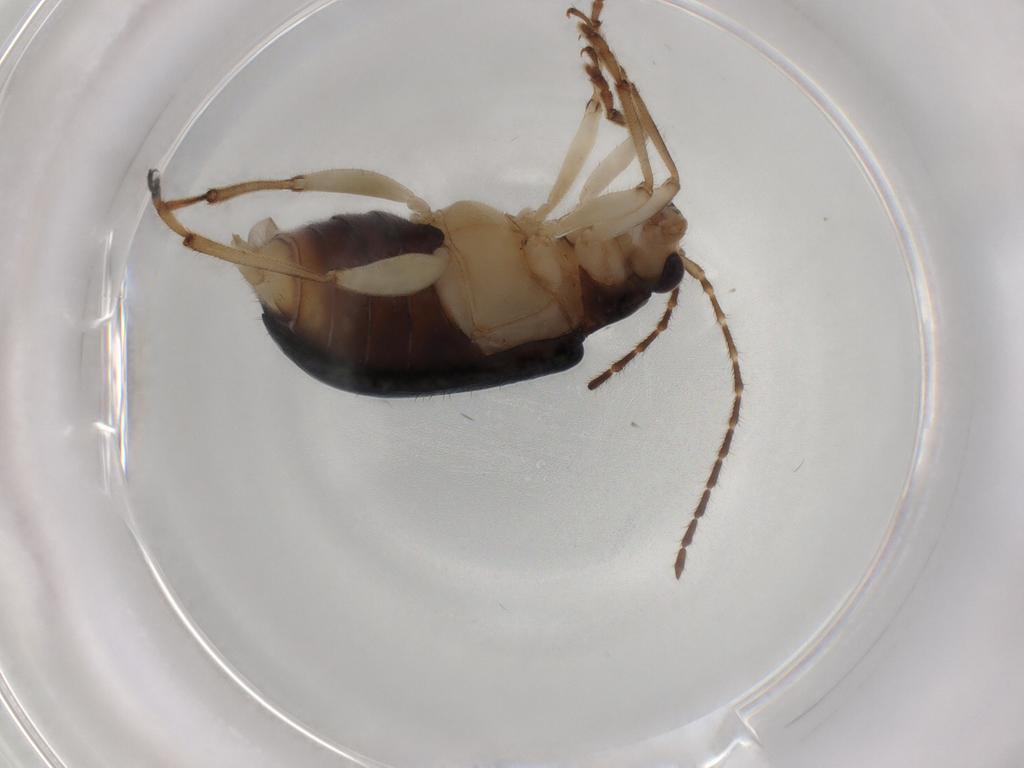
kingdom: Animalia
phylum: Arthropoda
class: Insecta
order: Coleoptera
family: Chrysomelidae
